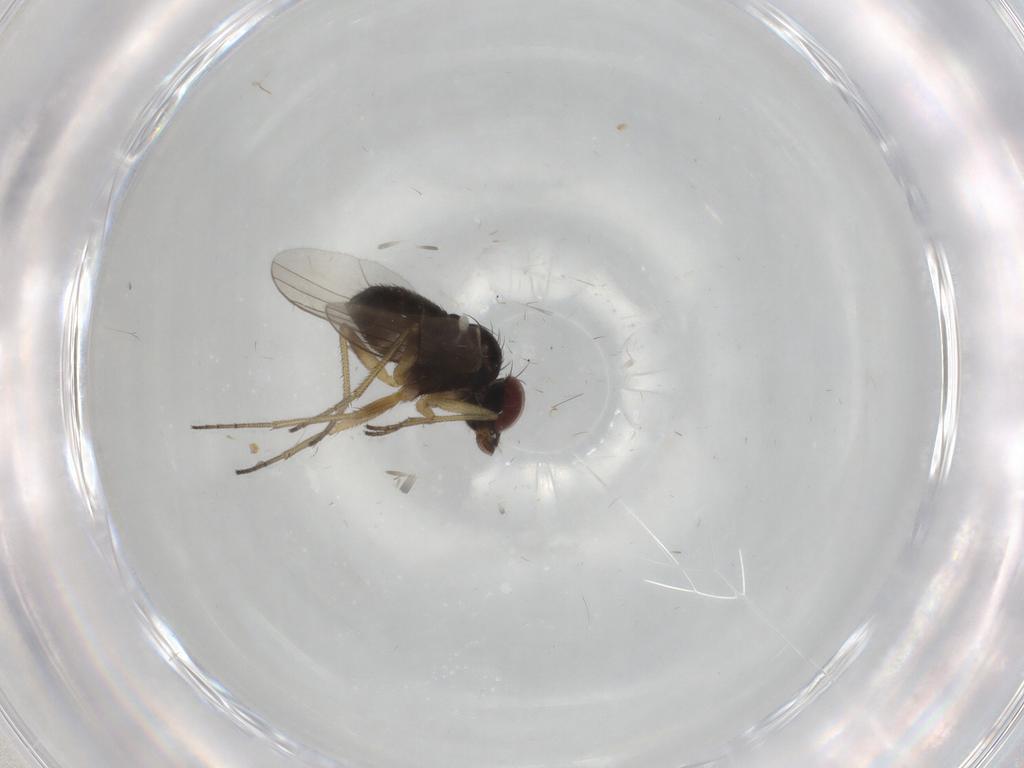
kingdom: Animalia
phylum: Arthropoda
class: Insecta
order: Diptera
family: Dolichopodidae
